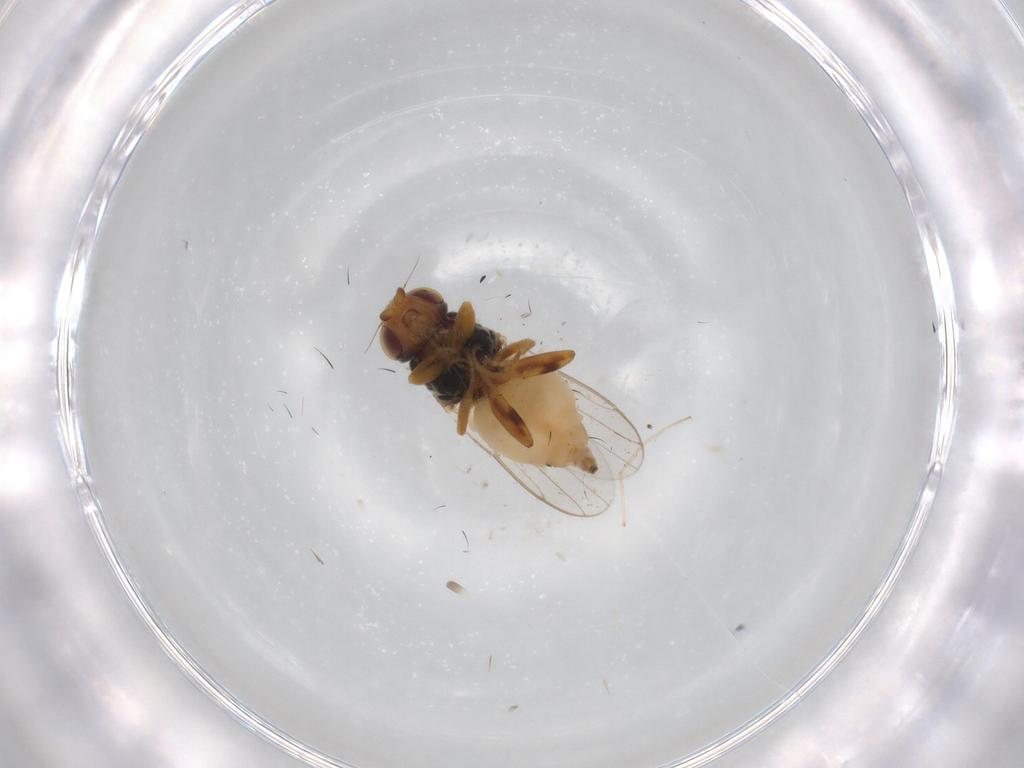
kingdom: Animalia
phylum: Arthropoda
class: Insecta
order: Diptera
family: Chloropidae
